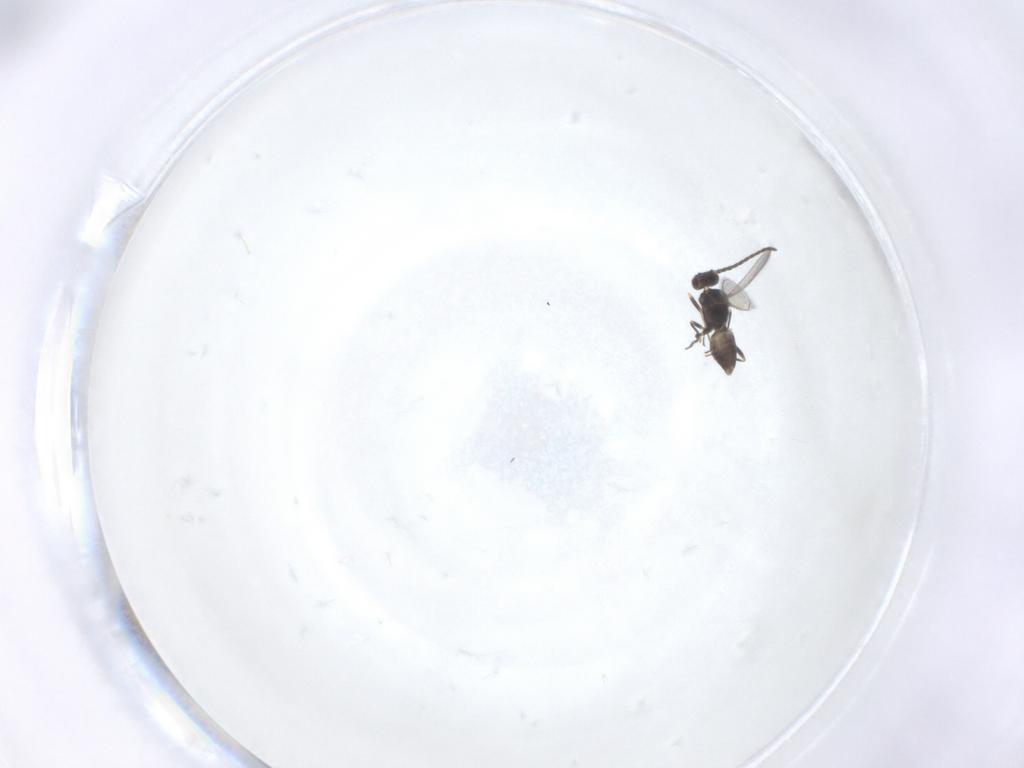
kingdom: Animalia
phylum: Arthropoda
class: Insecta
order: Hymenoptera
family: Mymaridae
